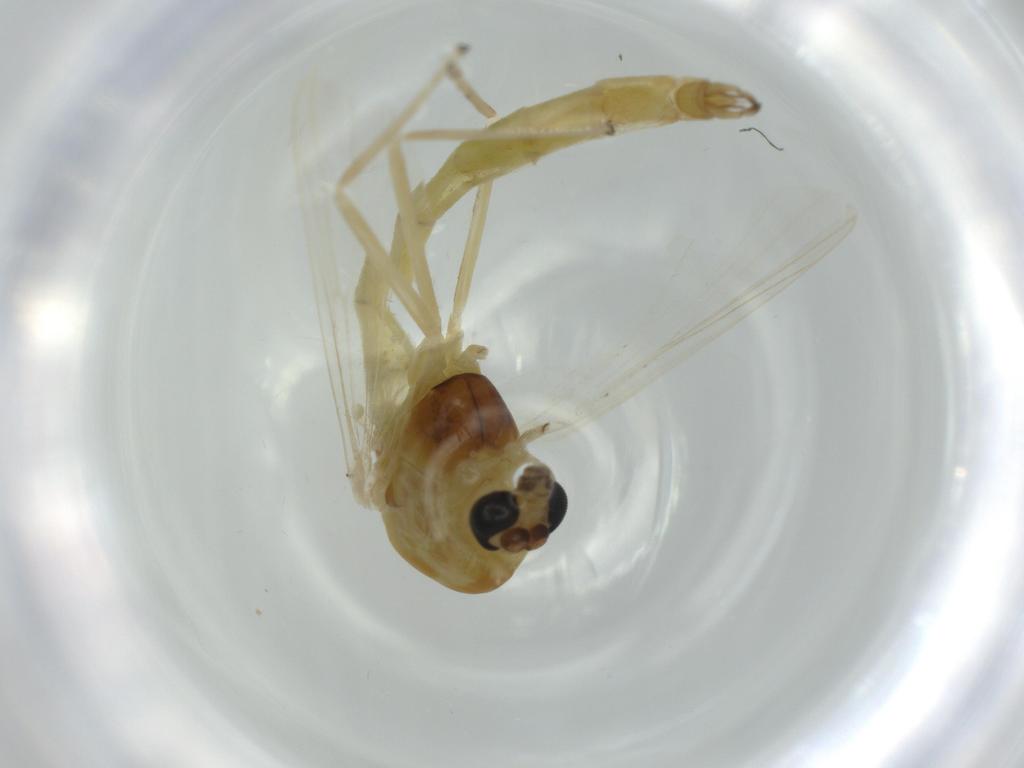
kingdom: Animalia
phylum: Arthropoda
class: Insecta
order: Diptera
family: Chironomidae
